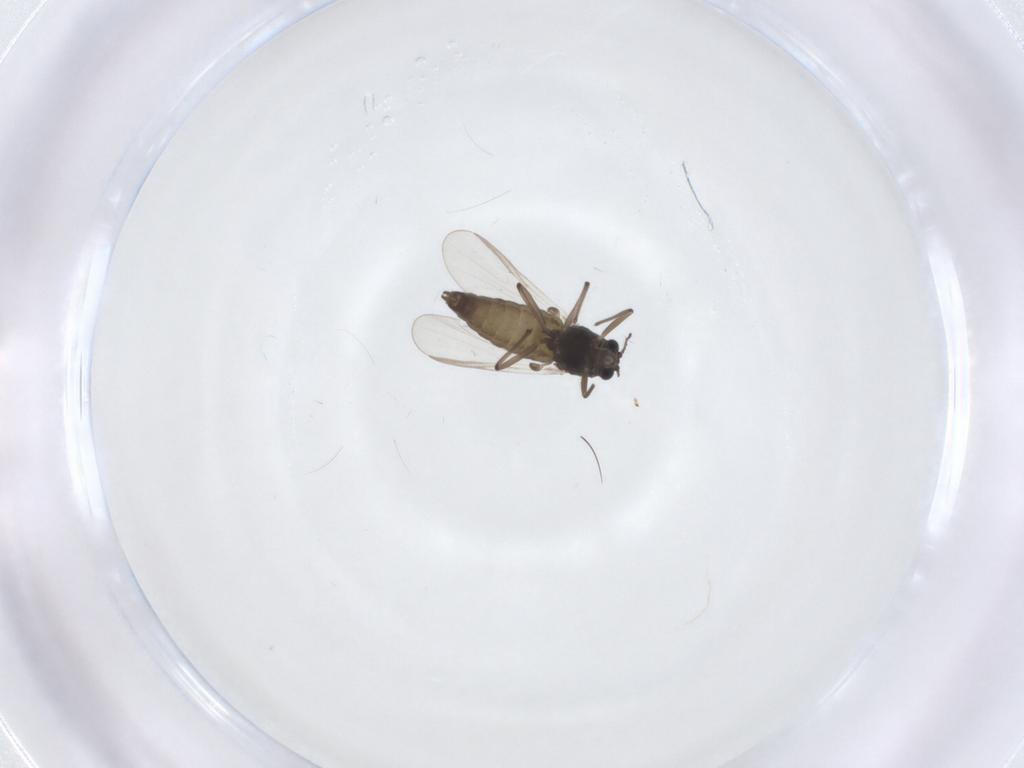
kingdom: Animalia
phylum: Arthropoda
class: Insecta
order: Diptera
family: Chironomidae
